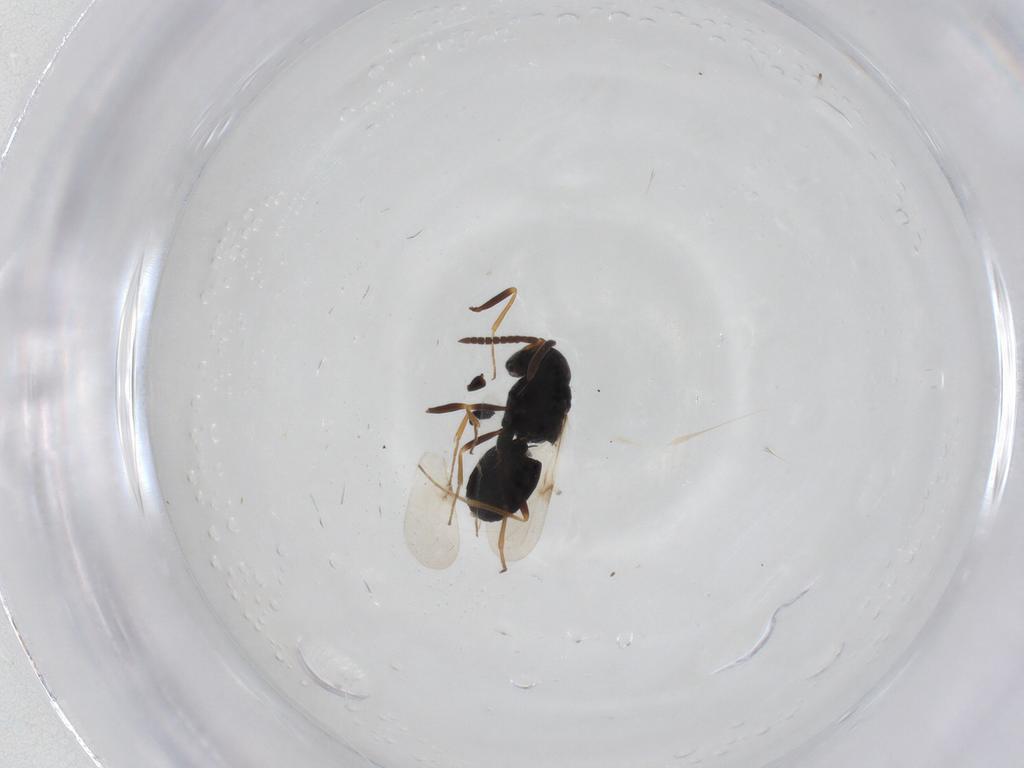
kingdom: Animalia
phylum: Arthropoda
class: Insecta
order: Hymenoptera
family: Scelionidae
